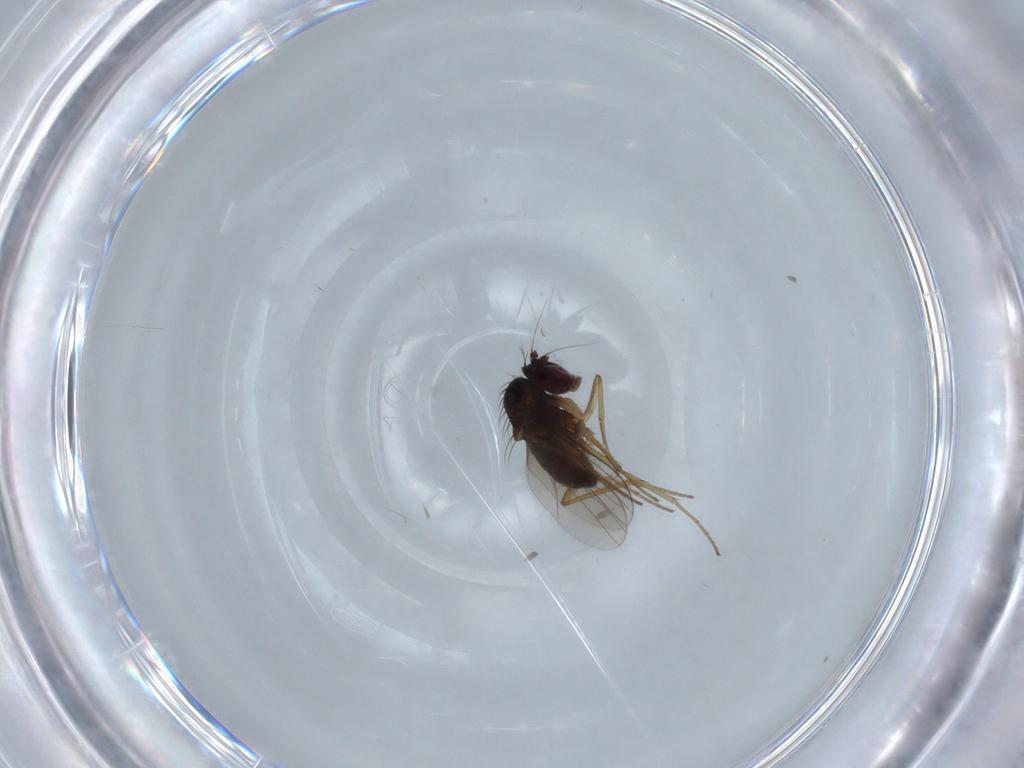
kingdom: Animalia
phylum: Arthropoda
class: Insecta
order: Diptera
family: Dolichopodidae
